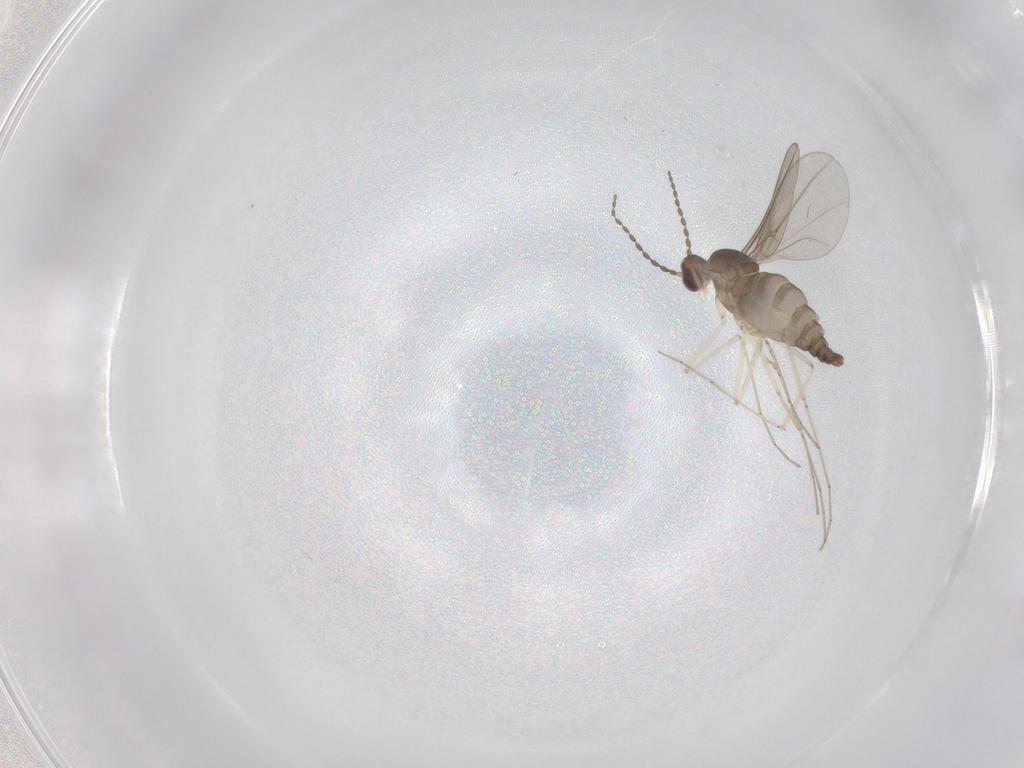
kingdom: Animalia
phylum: Arthropoda
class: Insecta
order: Diptera
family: Cecidomyiidae
